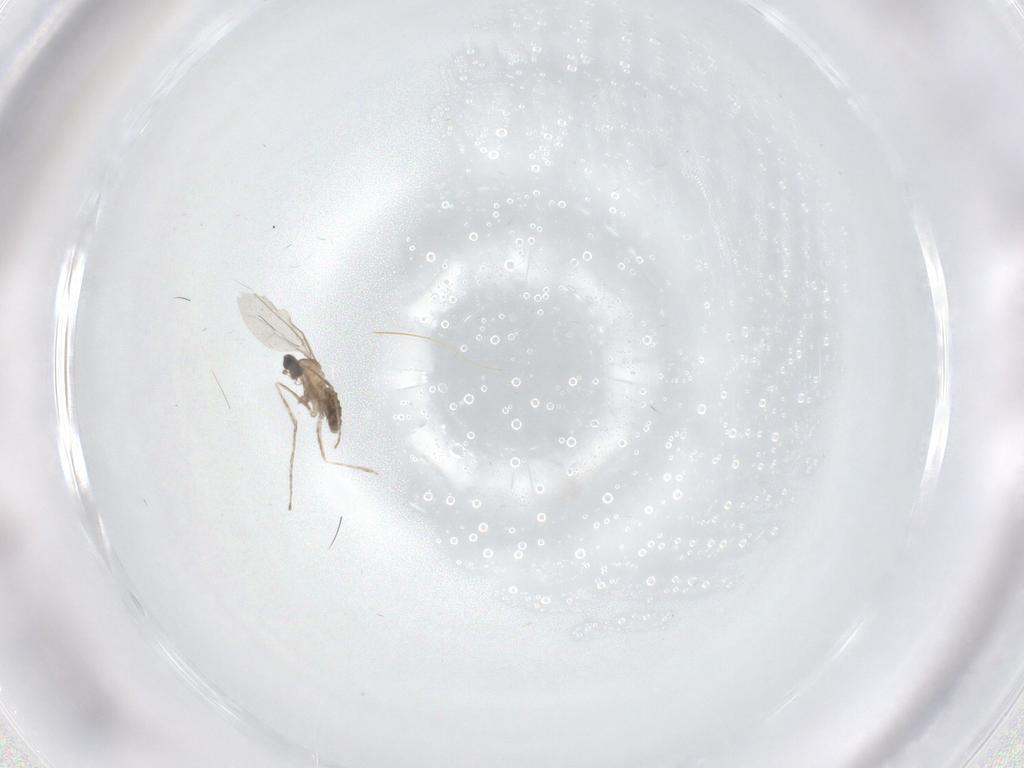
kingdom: Animalia
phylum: Arthropoda
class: Insecta
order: Diptera
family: Cecidomyiidae
